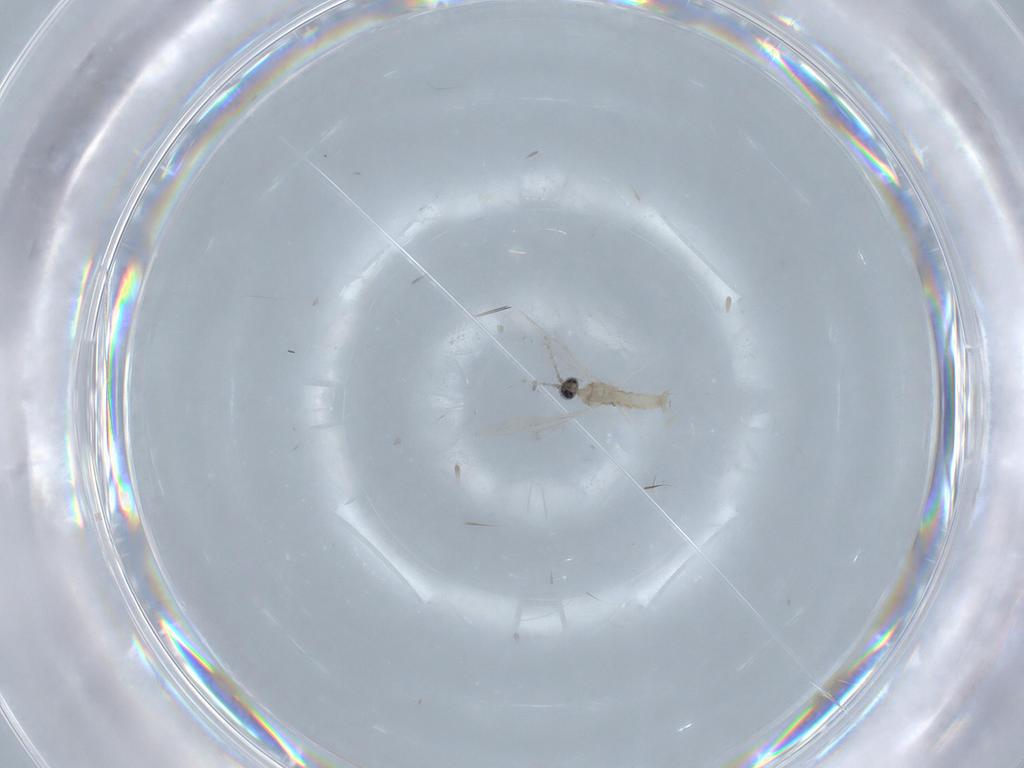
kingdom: Animalia
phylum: Arthropoda
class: Insecta
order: Diptera
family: Cecidomyiidae
